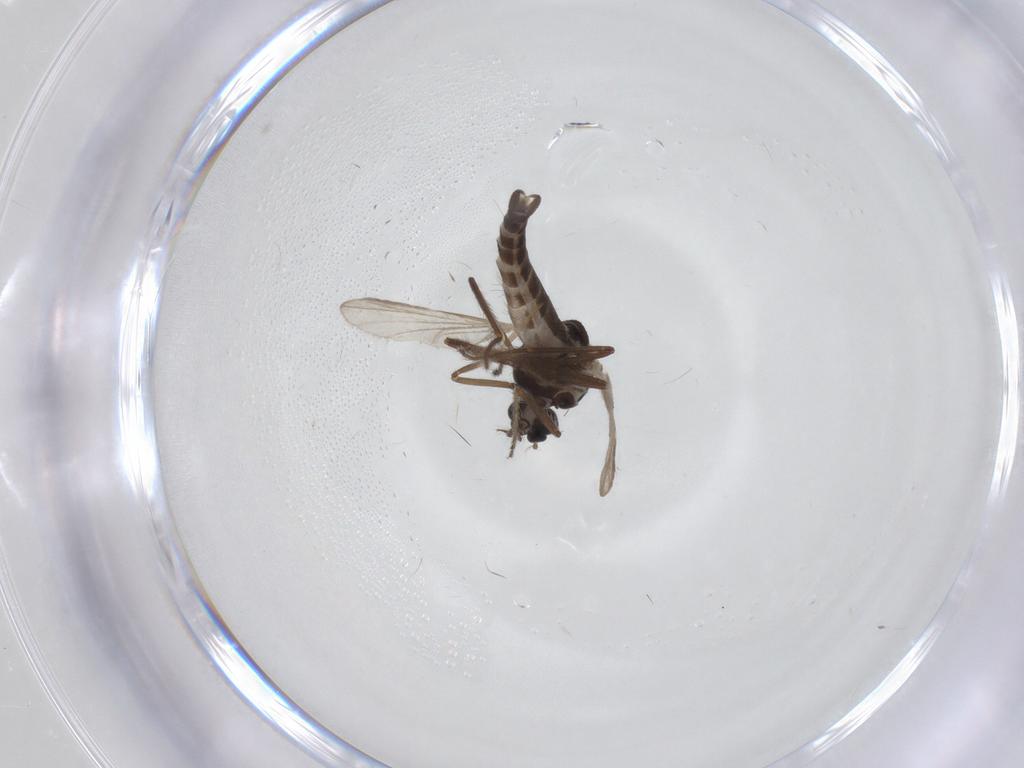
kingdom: Animalia
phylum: Arthropoda
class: Insecta
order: Diptera
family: Ceratopogonidae
